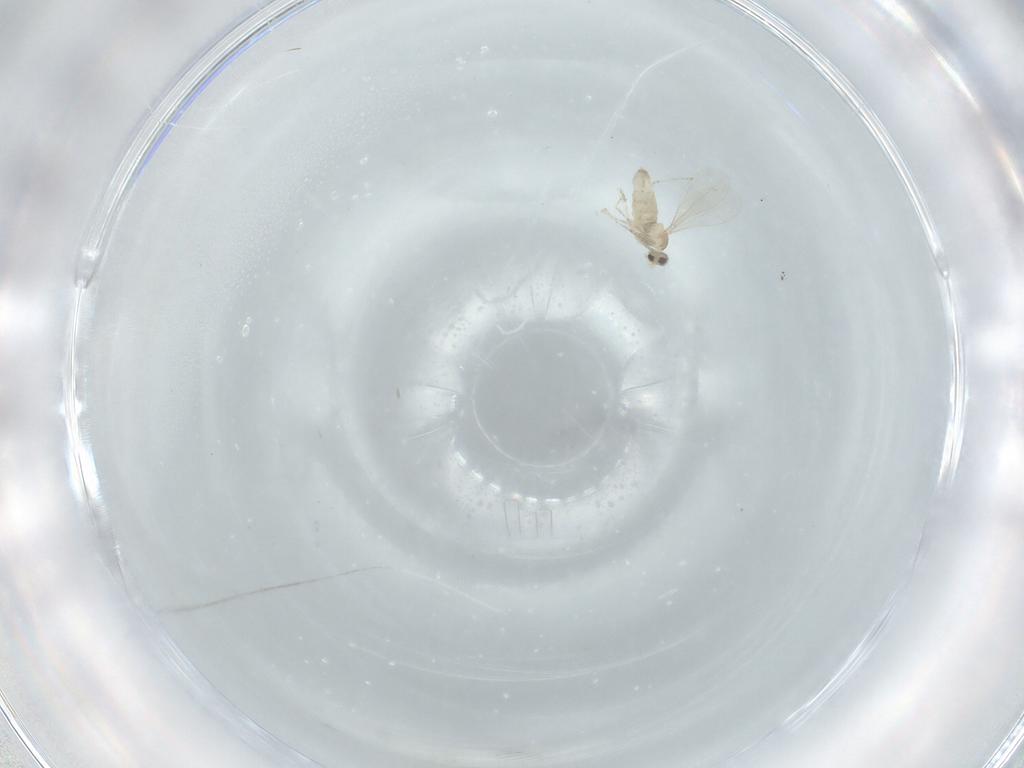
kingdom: Animalia
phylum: Arthropoda
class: Insecta
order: Diptera
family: Cecidomyiidae
